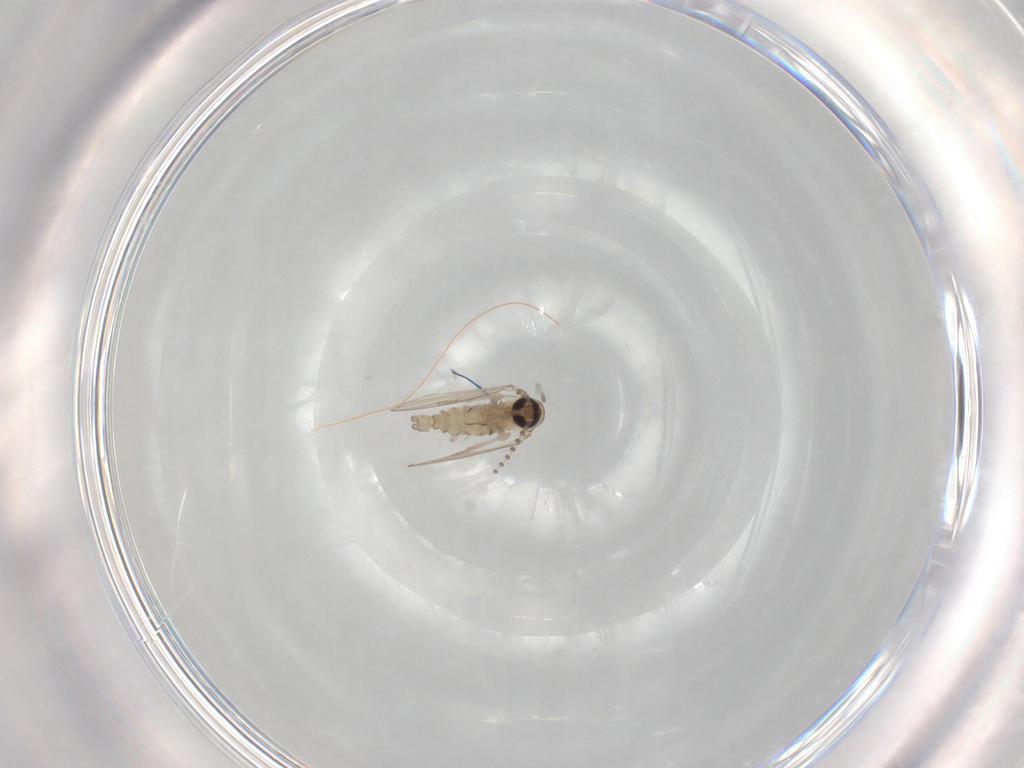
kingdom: Animalia
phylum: Arthropoda
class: Insecta
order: Diptera
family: Psychodidae
